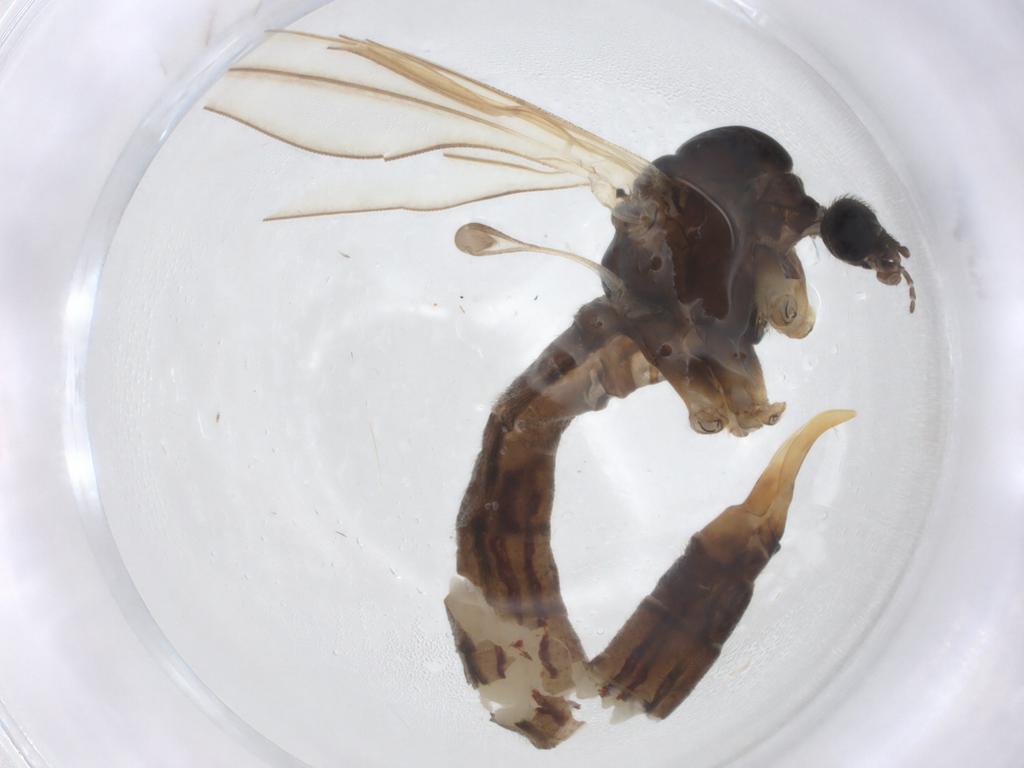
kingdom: Animalia
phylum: Arthropoda
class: Insecta
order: Diptera
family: Limoniidae
